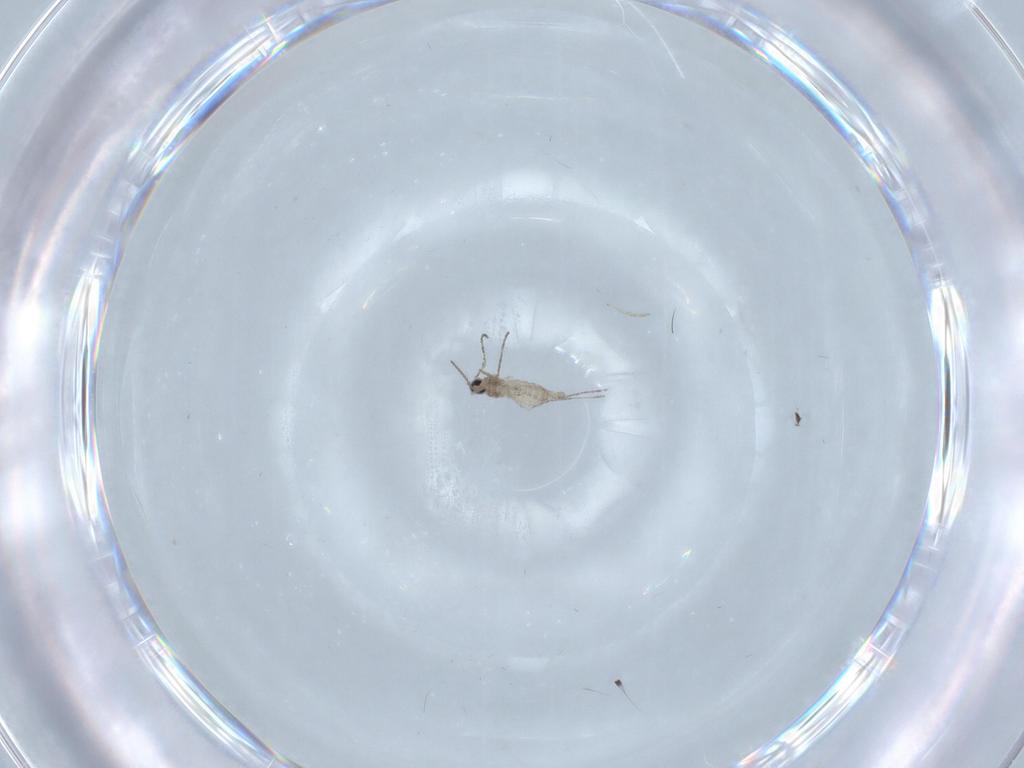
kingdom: Animalia
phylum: Arthropoda
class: Insecta
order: Diptera
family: Cecidomyiidae
